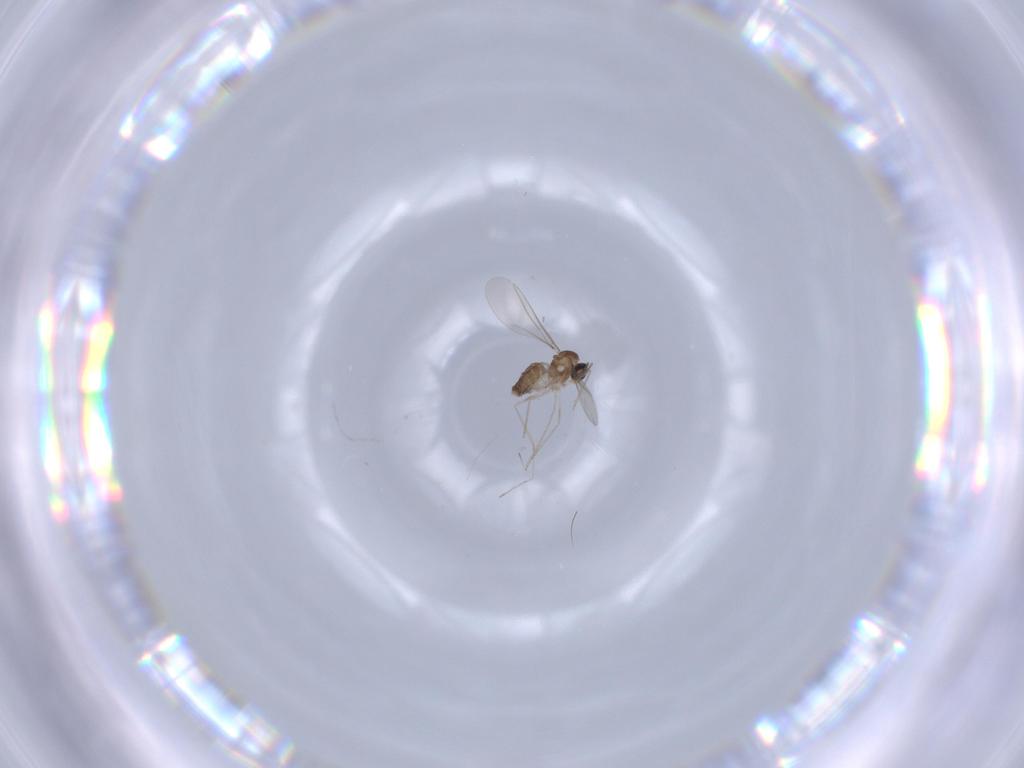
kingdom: Animalia
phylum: Arthropoda
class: Insecta
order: Diptera
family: Cecidomyiidae
